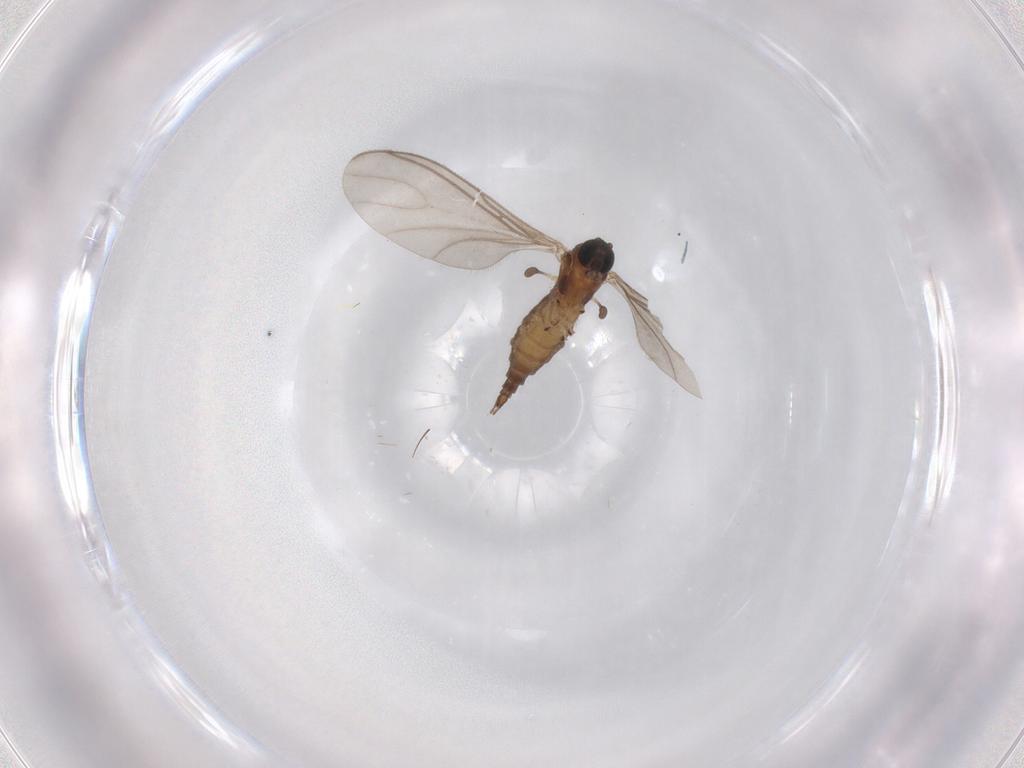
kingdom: Animalia
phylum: Arthropoda
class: Insecta
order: Diptera
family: Sciaridae
